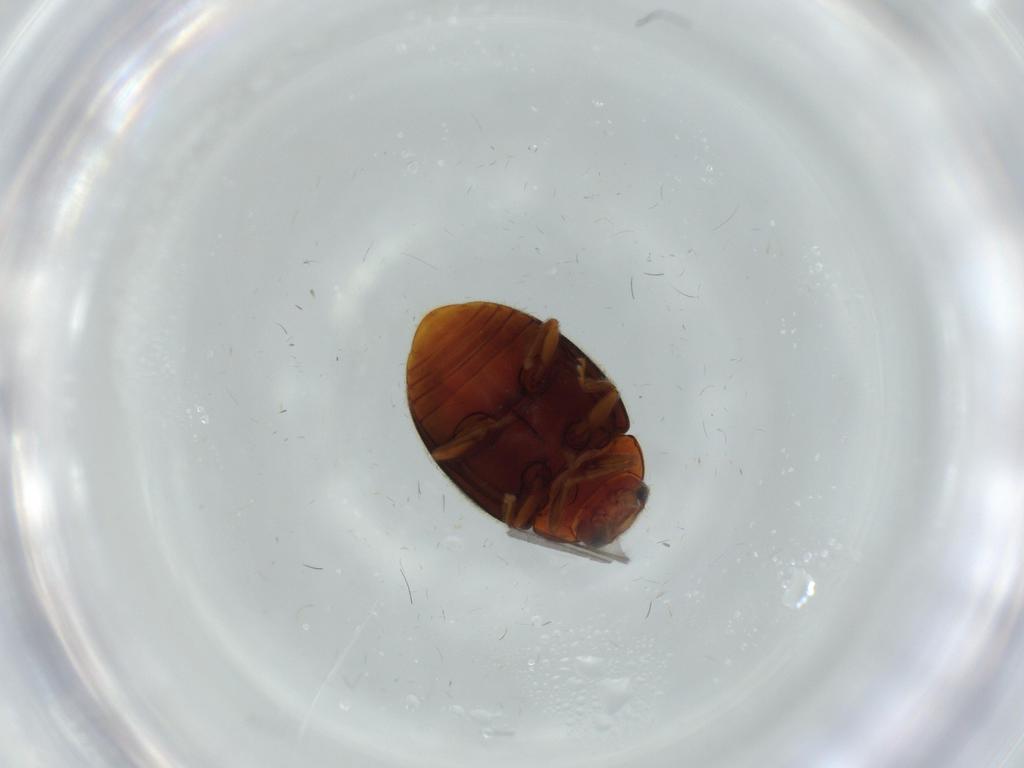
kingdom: Animalia
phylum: Arthropoda
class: Insecta
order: Coleoptera
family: Coccinellidae
